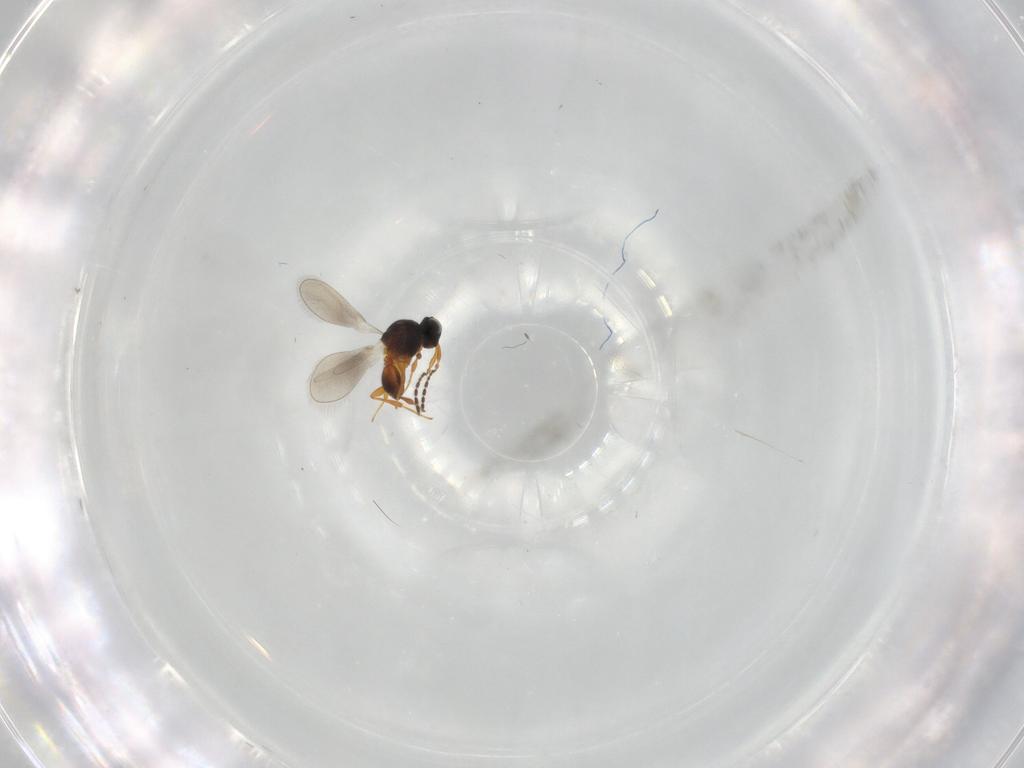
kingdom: Animalia
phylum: Arthropoda
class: Insecta
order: Hymenoptera
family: Platygastridae
